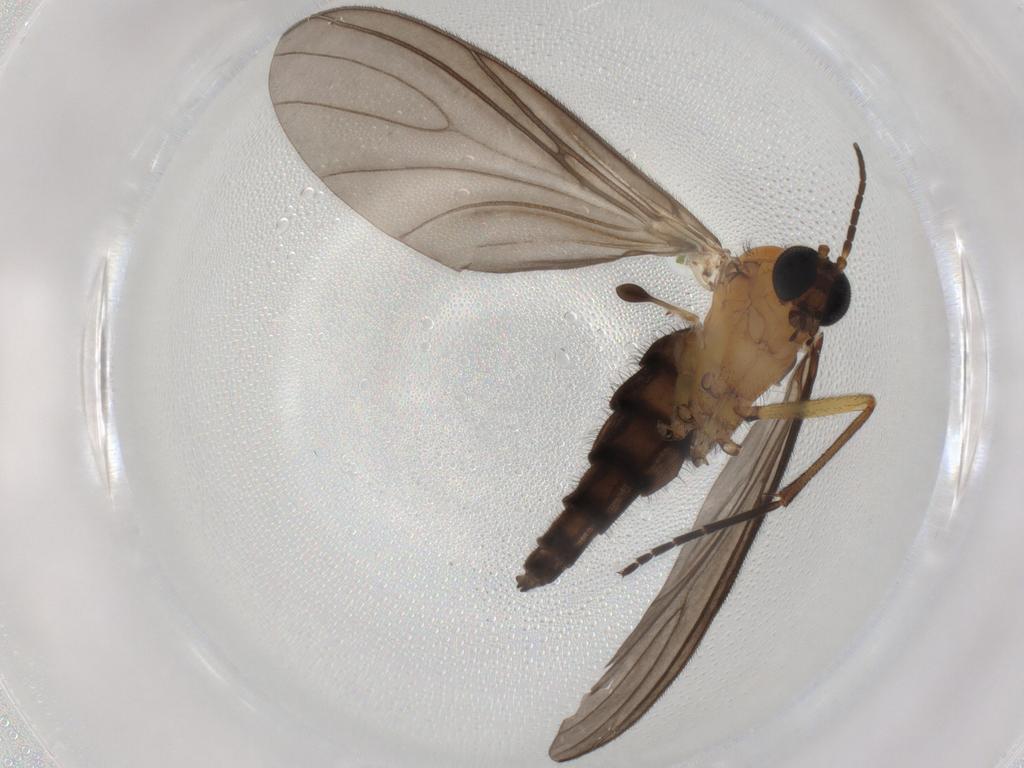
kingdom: Animalia
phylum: Arthropoda
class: Insecta
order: Diptera
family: Sciaridae
